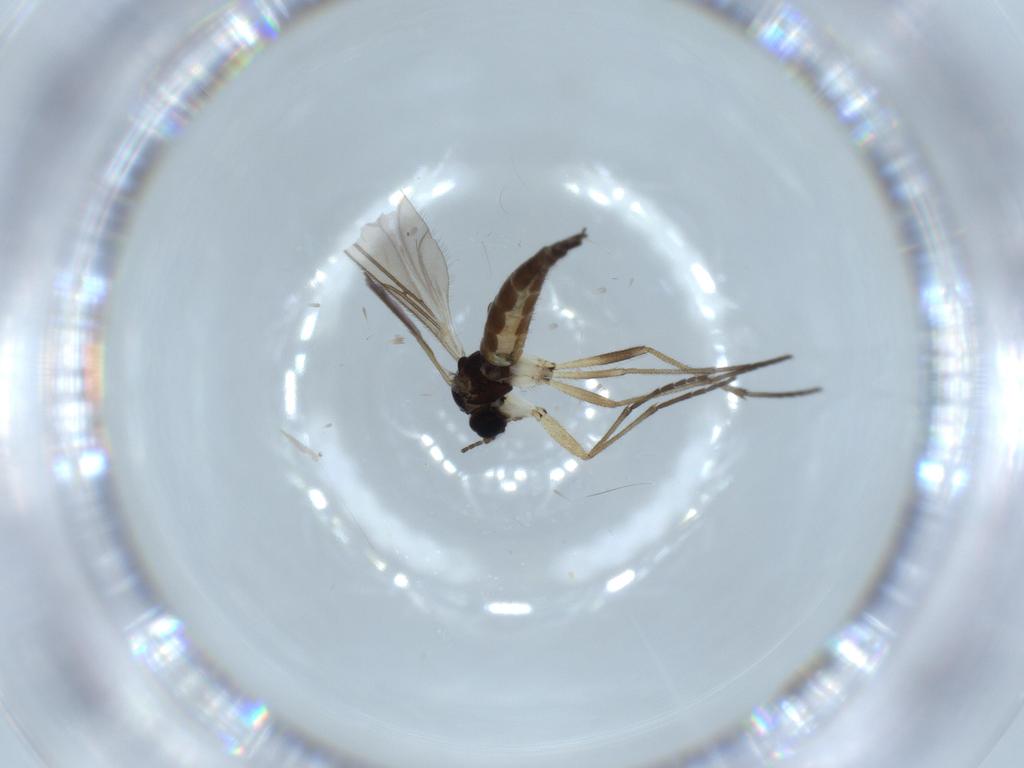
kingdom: Animalia
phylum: Arthropoda
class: Insecta
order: Diptera
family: Sciaridae
